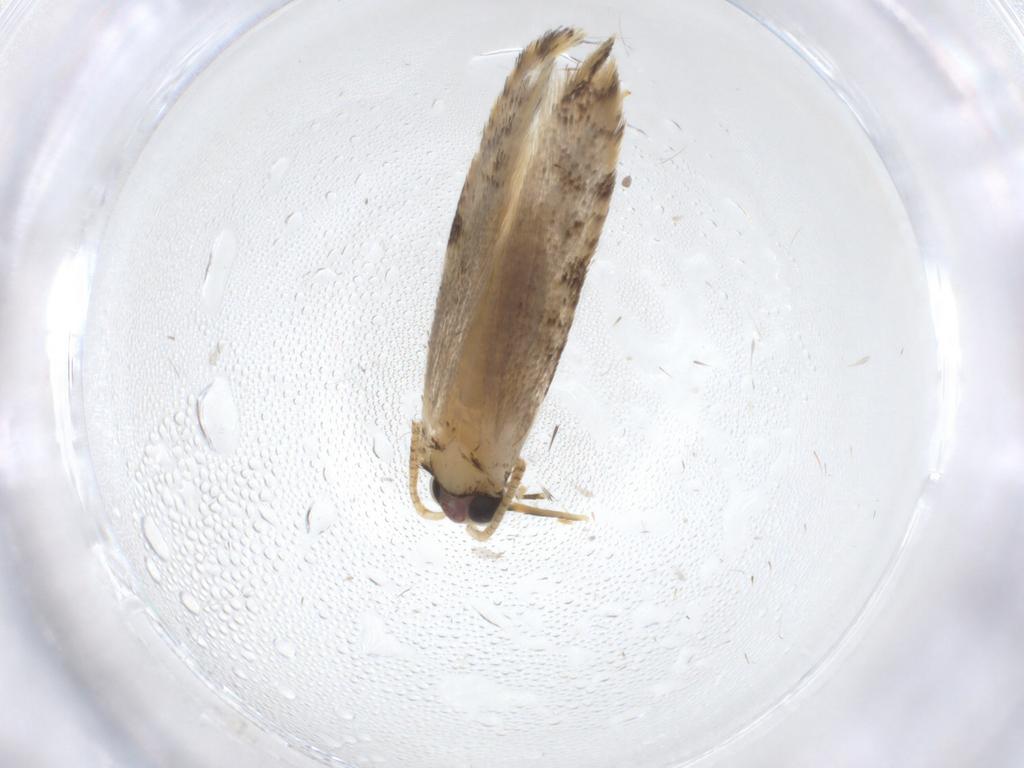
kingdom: Animalia
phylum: Arthropoda
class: Insecta
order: Lepidoptera
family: Tineidae
